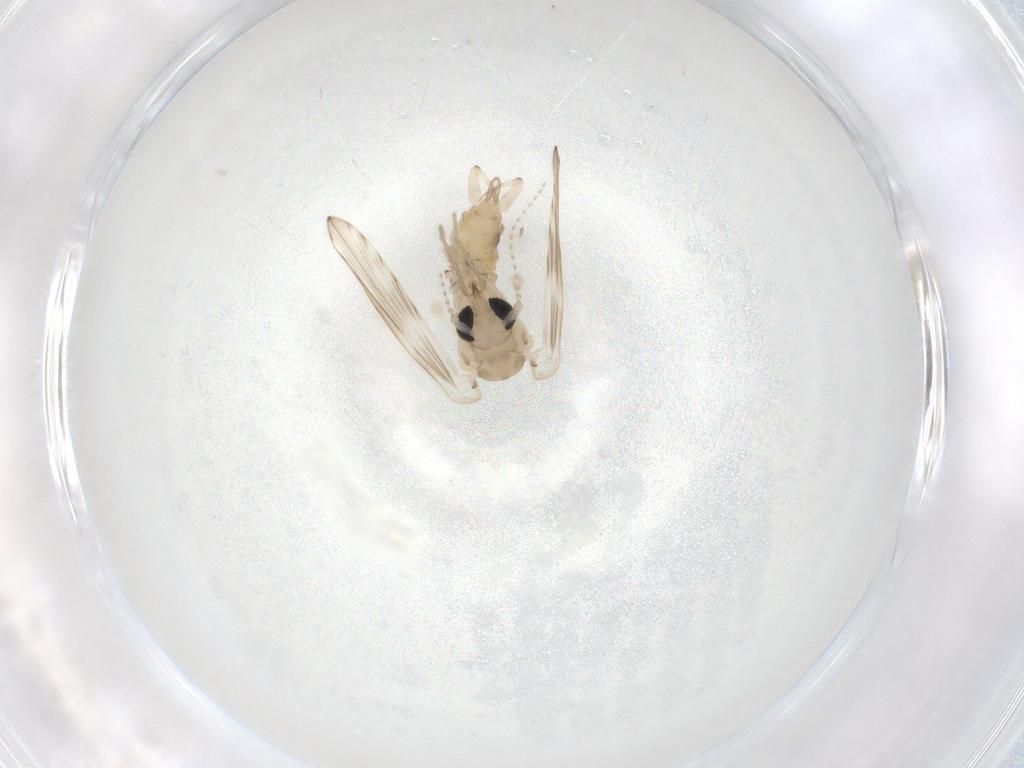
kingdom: Animalia
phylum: Arthropoda
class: Insecta
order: Diptera
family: Psychodidae
